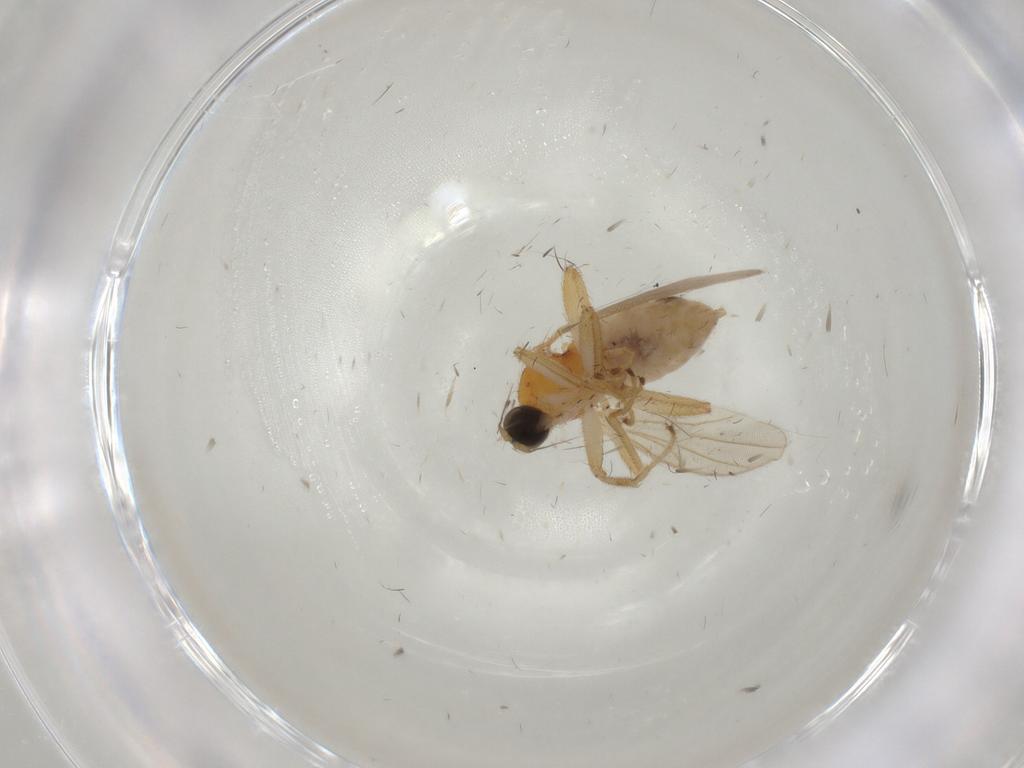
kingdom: Animalia
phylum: Arthropoda
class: Insecta
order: Diptera
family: Hybotidae
